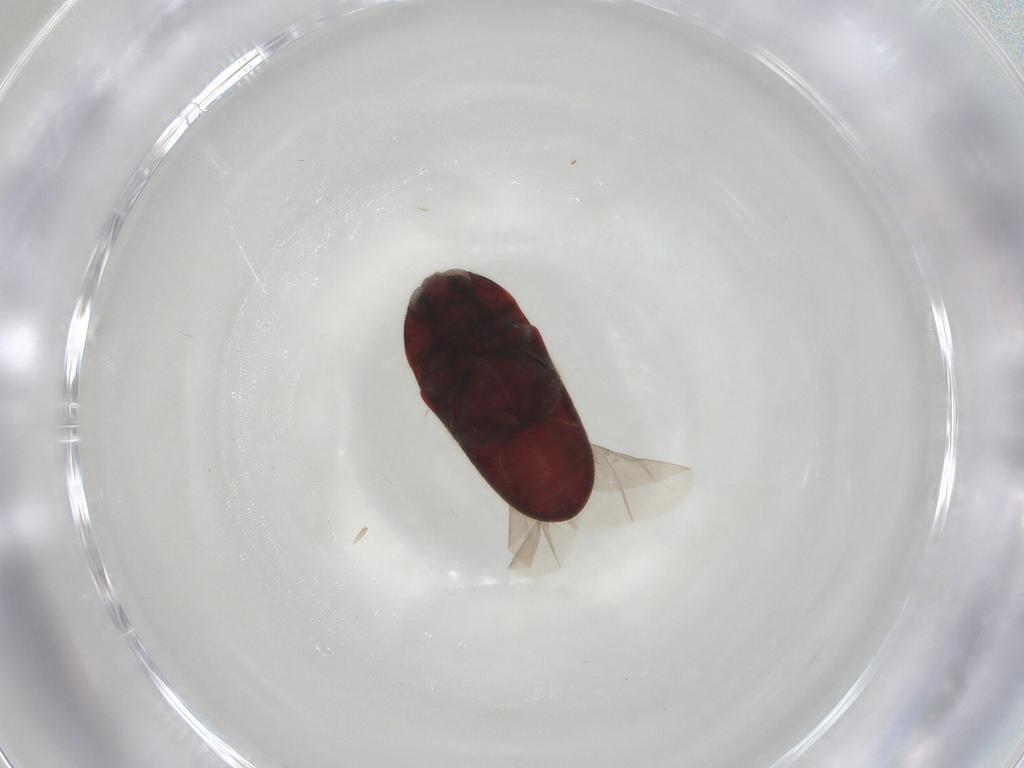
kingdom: Animalia
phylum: Arthropoda
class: Insecta
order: Coleoptera
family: Throscidae
